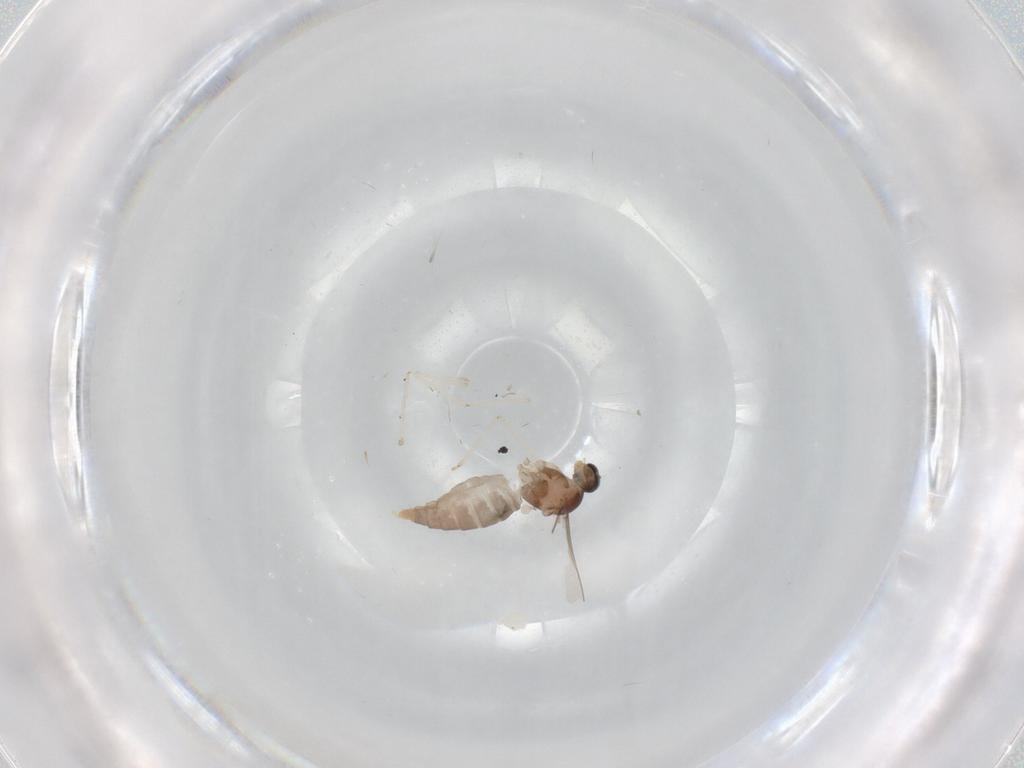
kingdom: Animalia
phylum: Arthropoda
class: Insecta
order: Diptera
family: Cecidomyiidae
